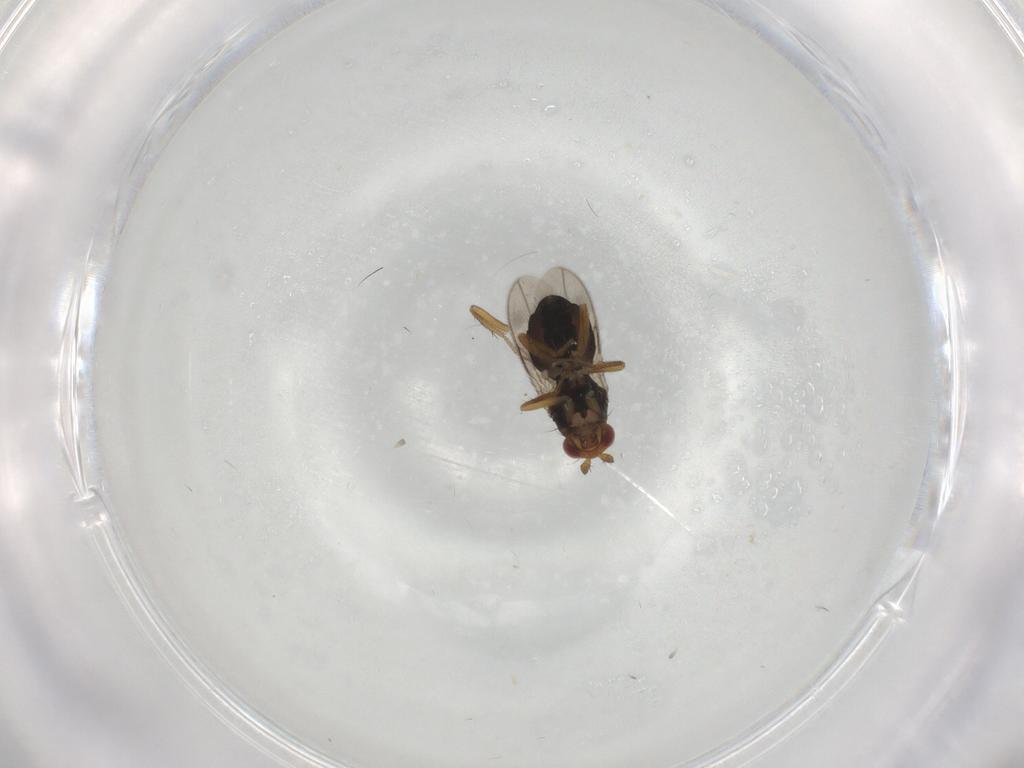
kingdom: Animalia
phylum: Arthropoda
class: Insecta
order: Diptera
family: Sphaeroceridae
